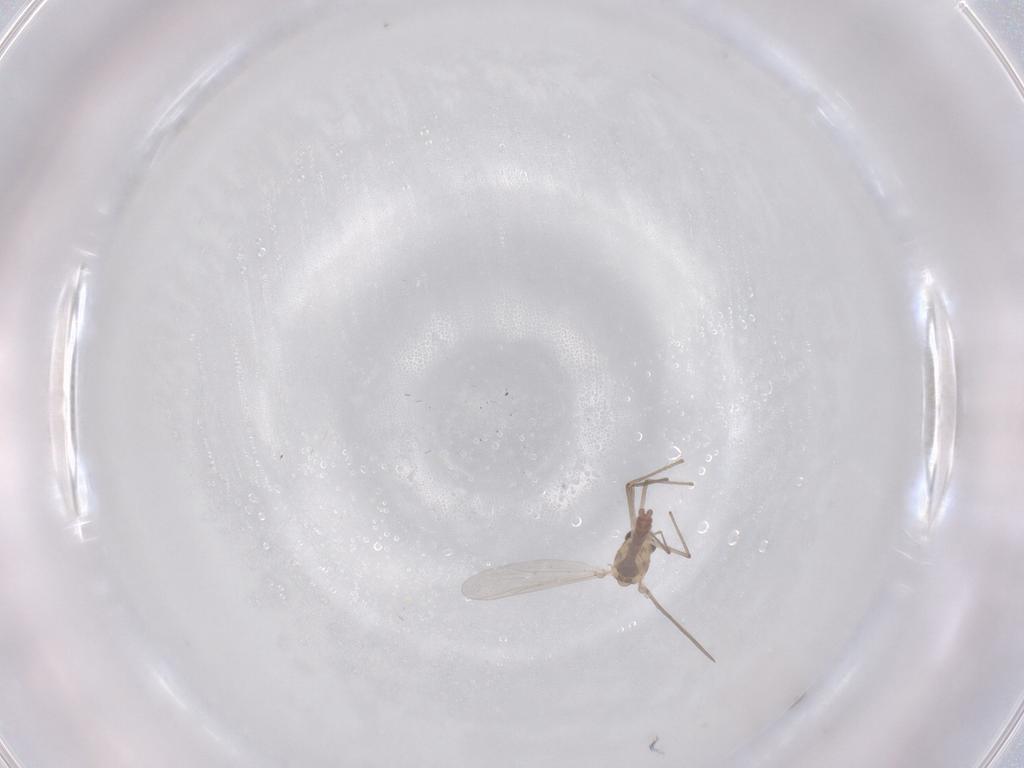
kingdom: Animalia
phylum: Arthropoda
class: Insecta
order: Diptera
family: Chironomidae
